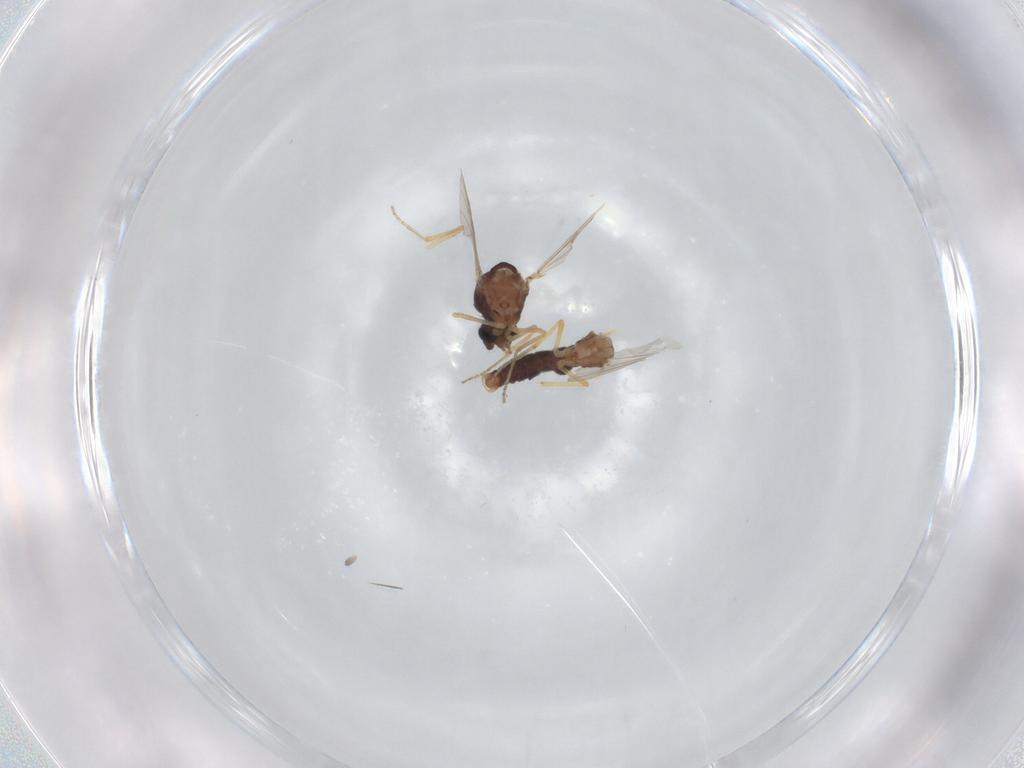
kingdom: Animalia
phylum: Arthropoda
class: Insecta
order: Diptera
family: Ceratopogonidae
